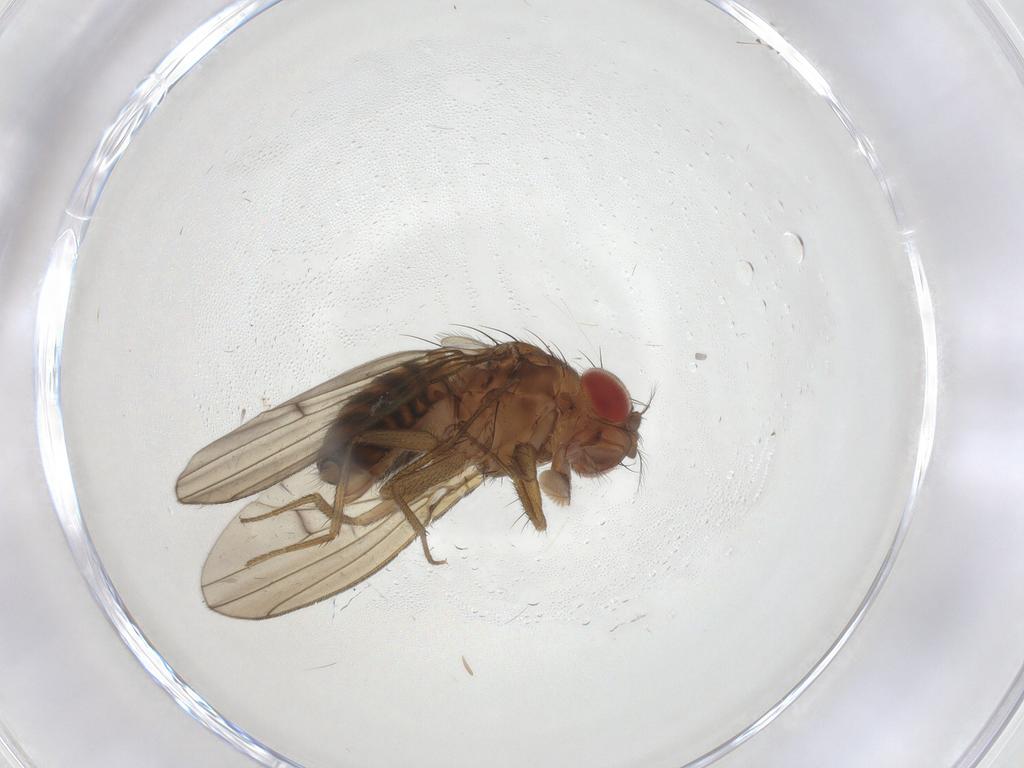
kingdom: Animalia
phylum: Arthropoda
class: Insecta
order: Diptera
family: Drosophilidae
